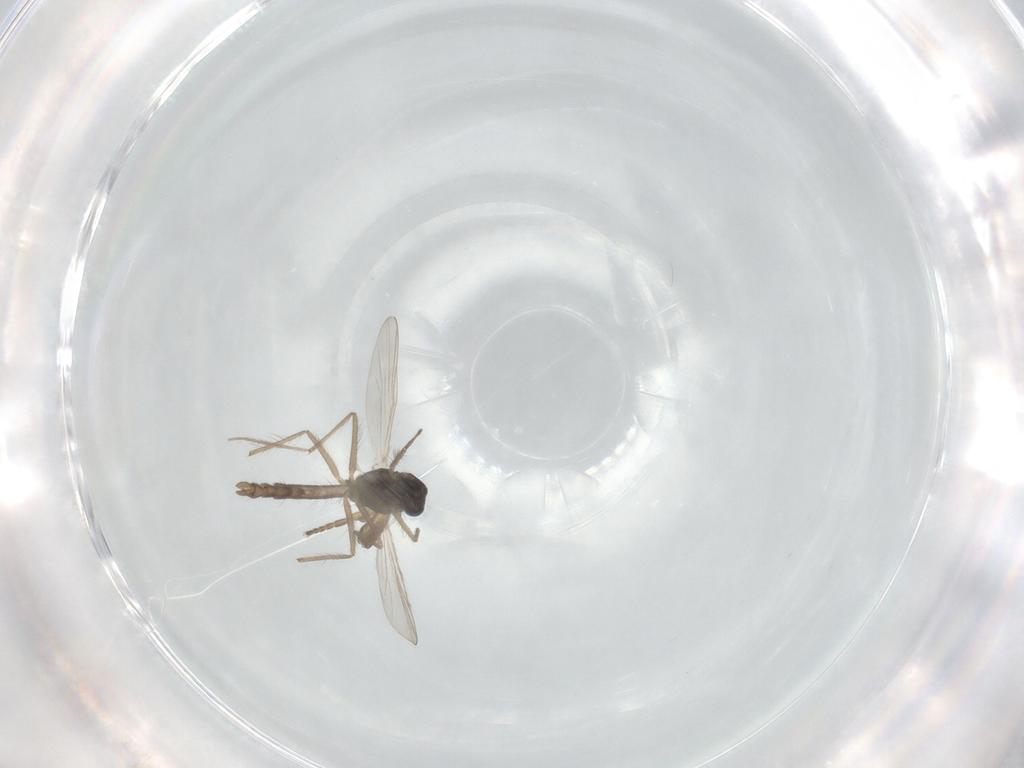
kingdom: Animalia
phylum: Arthropoda
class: Insecta
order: Diptera
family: Chironomidae
